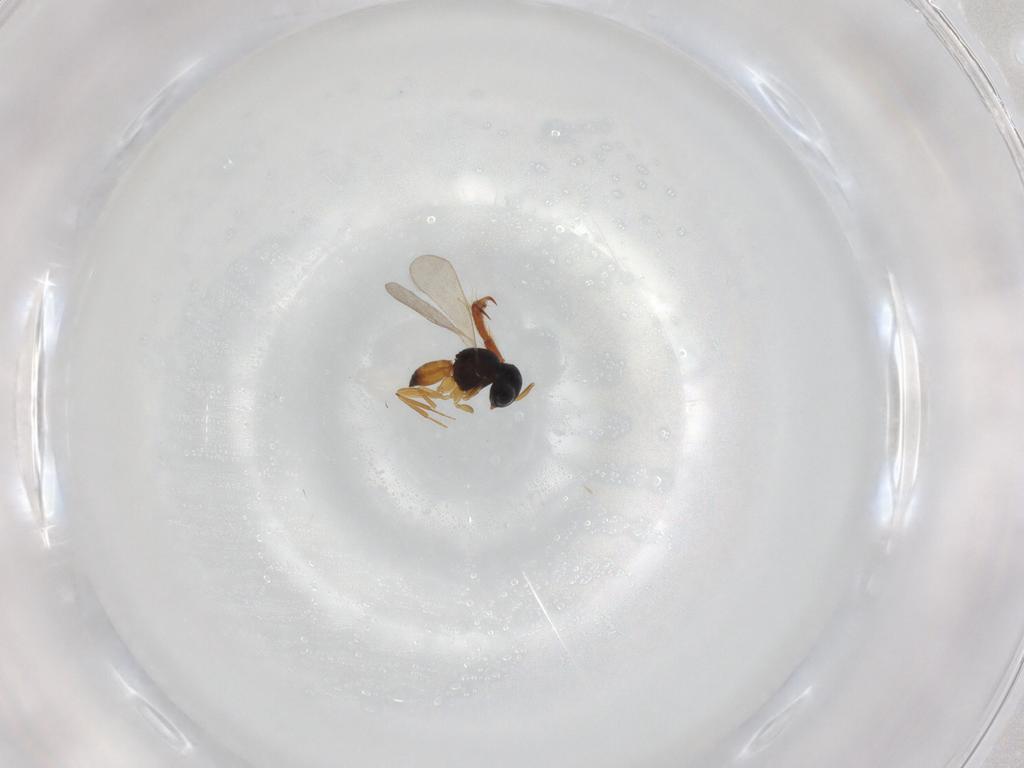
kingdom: Animalia
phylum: Arthropoda
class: Insecta
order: Hymenoptera
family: Scelionidae
